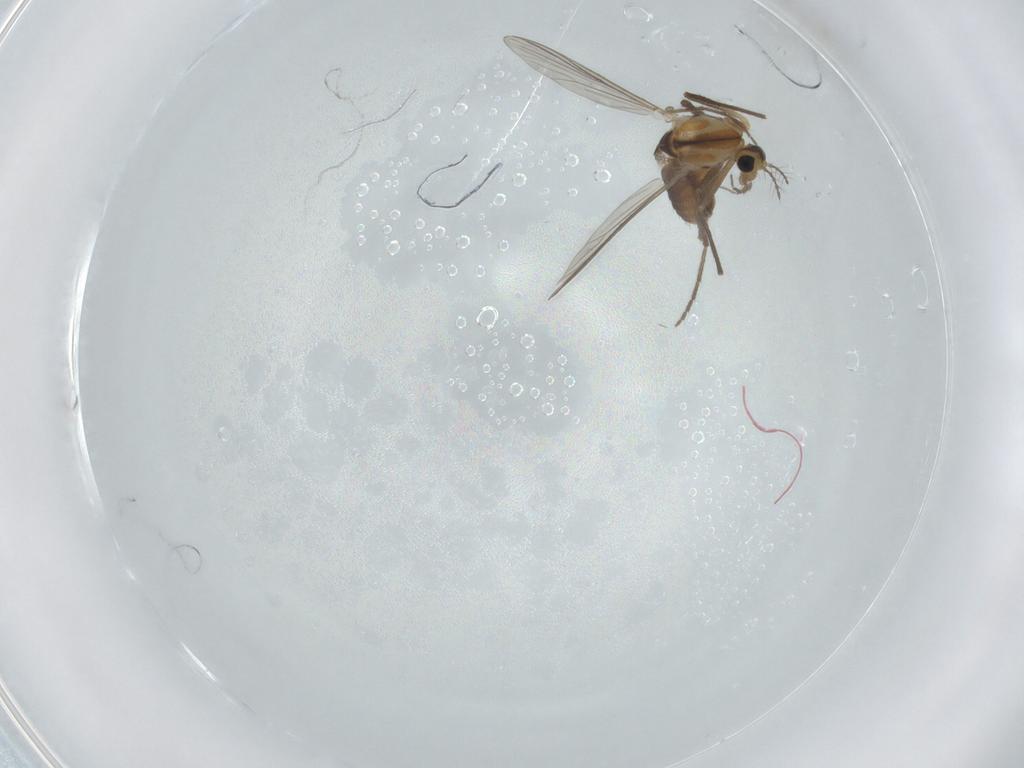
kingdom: Animalia
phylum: Arthropoda
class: Insecta
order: Diptera
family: Chironomidae
